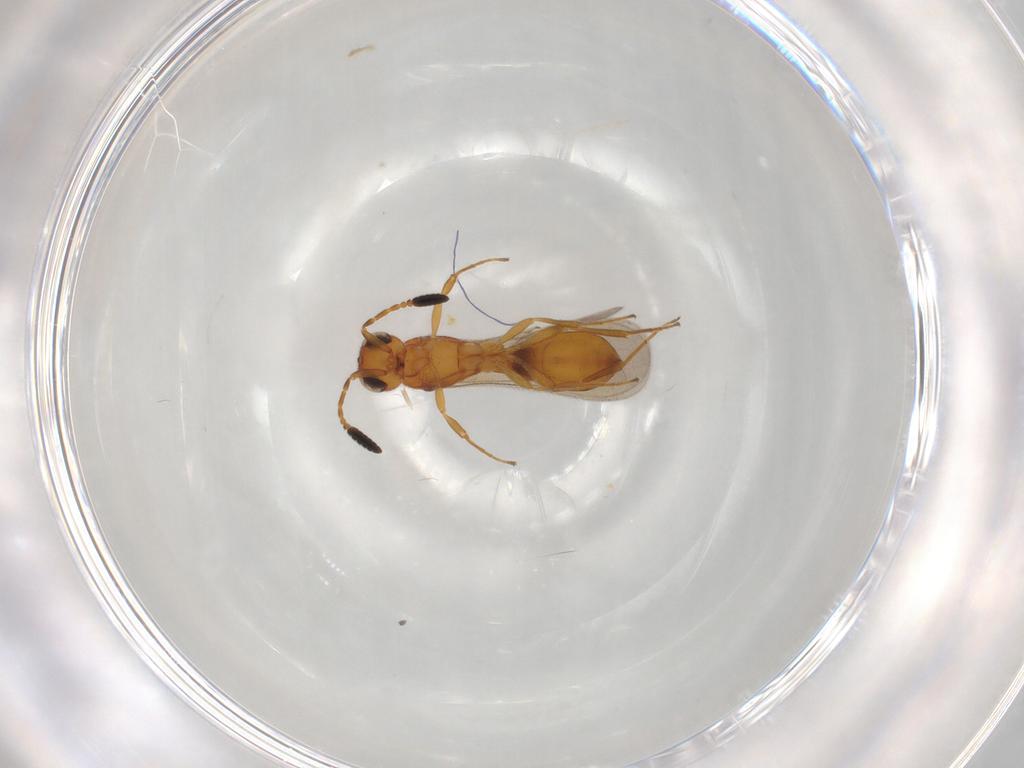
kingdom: Animalia
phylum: Arthropoda
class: Insecta
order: Hymenoptera
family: Scelionidae
